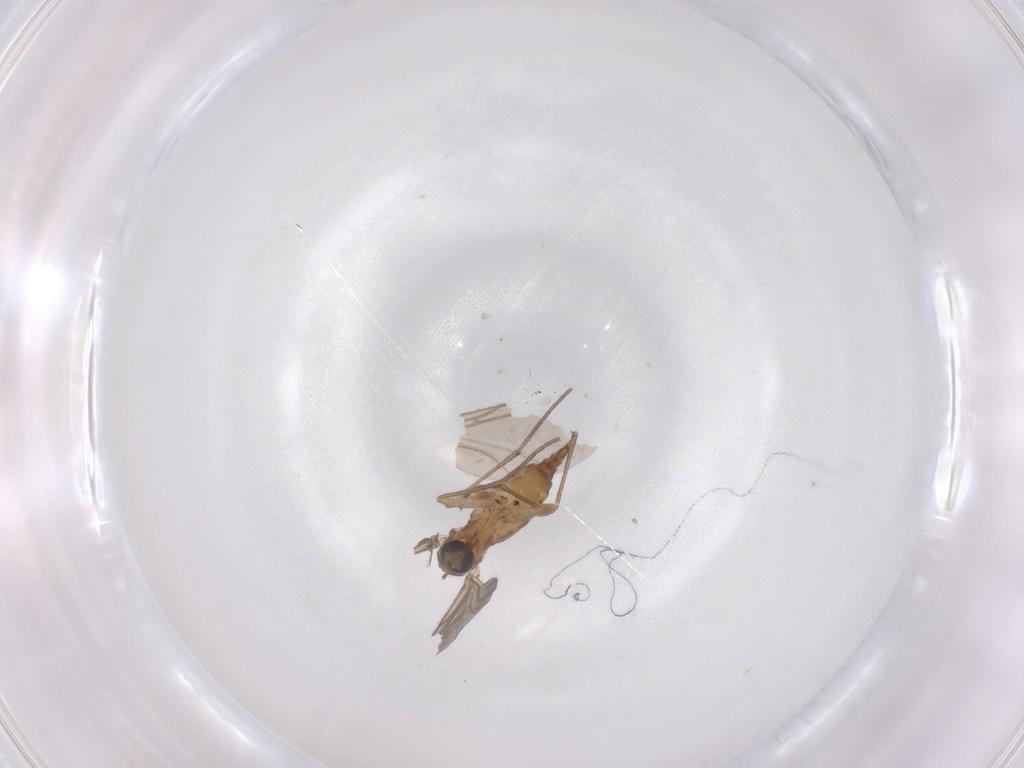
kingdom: Animalia
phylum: Arthropoda
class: Insecta
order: Diptera
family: Sciaridae
